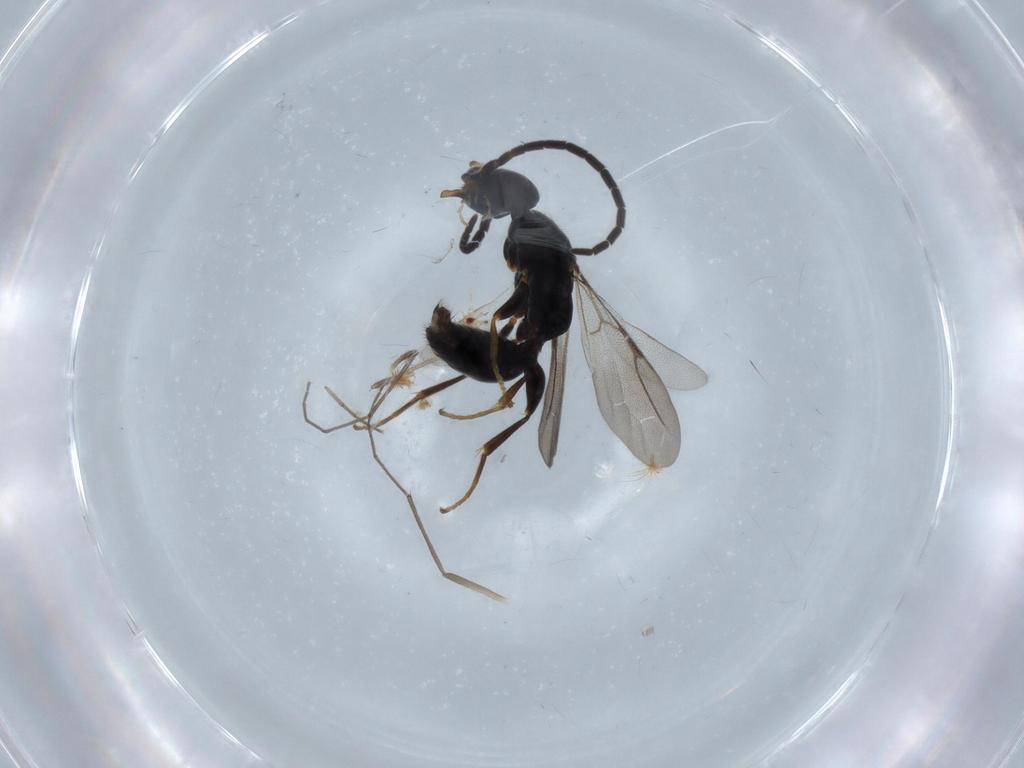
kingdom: Animalia
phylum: Arthropoda
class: Insecta
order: Hymenoptera
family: Bethylidae
